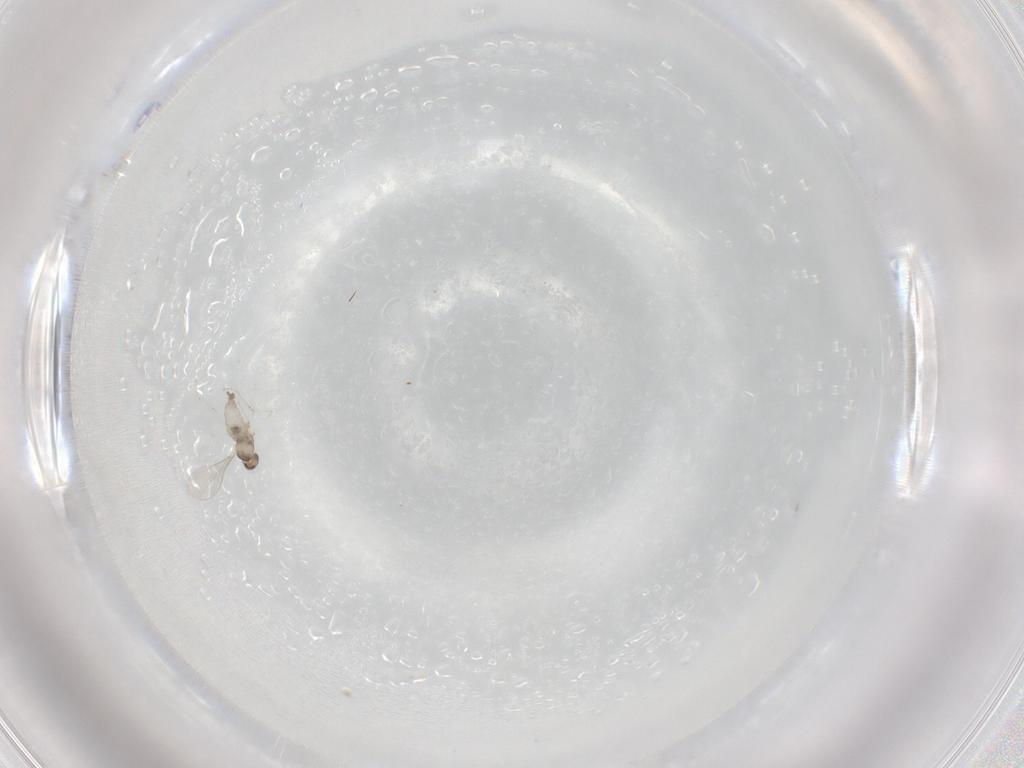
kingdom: Animalia
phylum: Arthropoda
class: Insecta
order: Diptera
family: Cecidomyiidae
